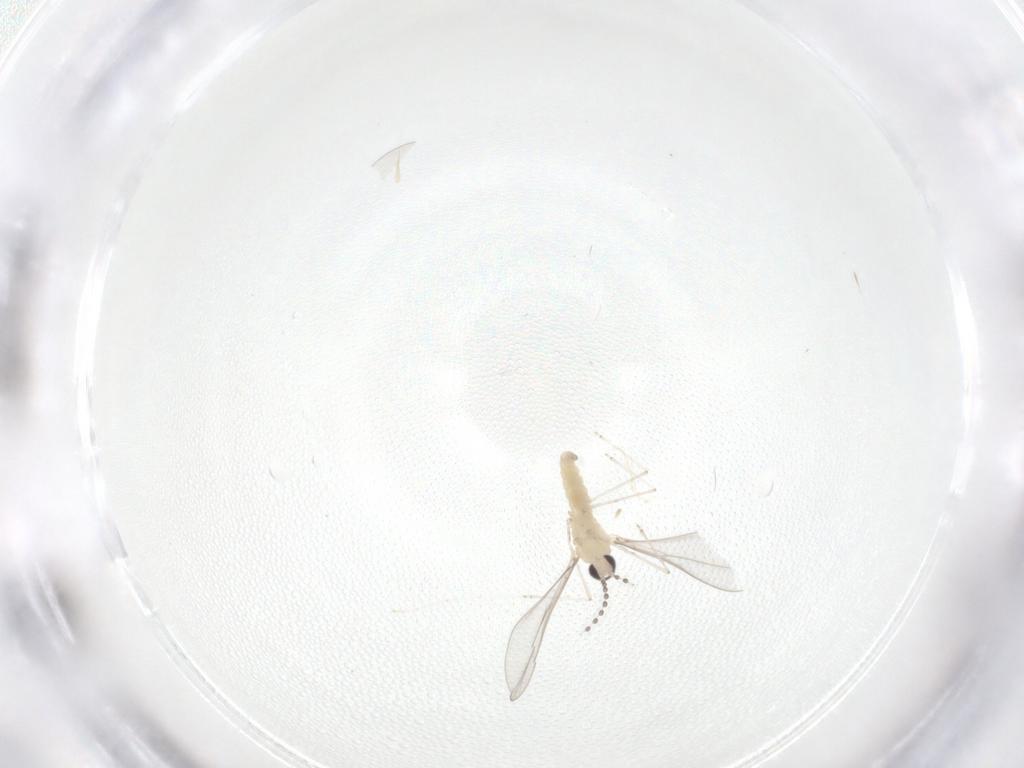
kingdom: Animalia
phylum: Arthropoda
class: Insecta
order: Diptera
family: Cecidomyiidae
